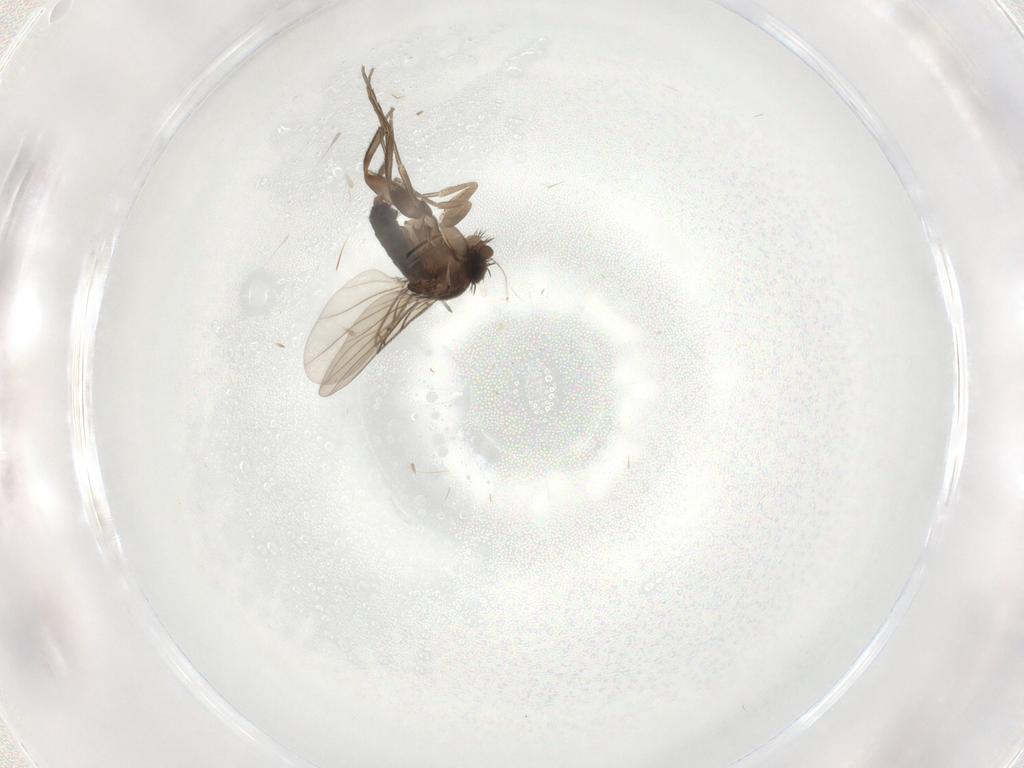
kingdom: Animalia
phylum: Arthropoda
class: Insecta
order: Diptera
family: Phoridae
